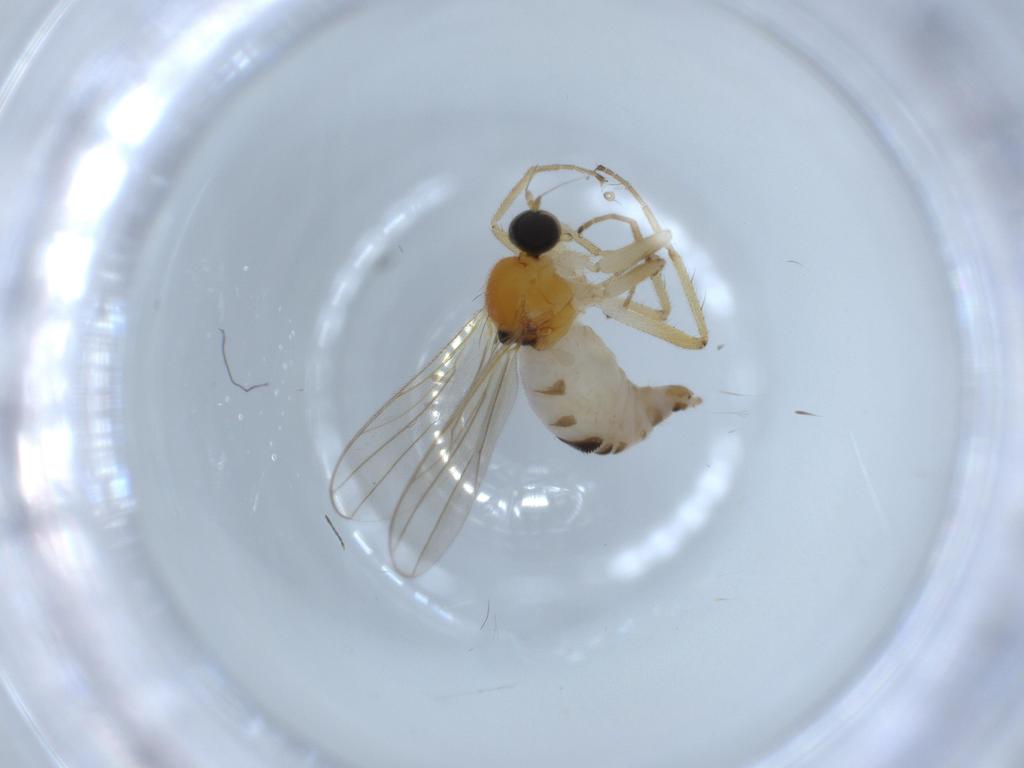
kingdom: Animalia
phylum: Arthropoda
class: Insecta
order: Diptera
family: Hybotidae
